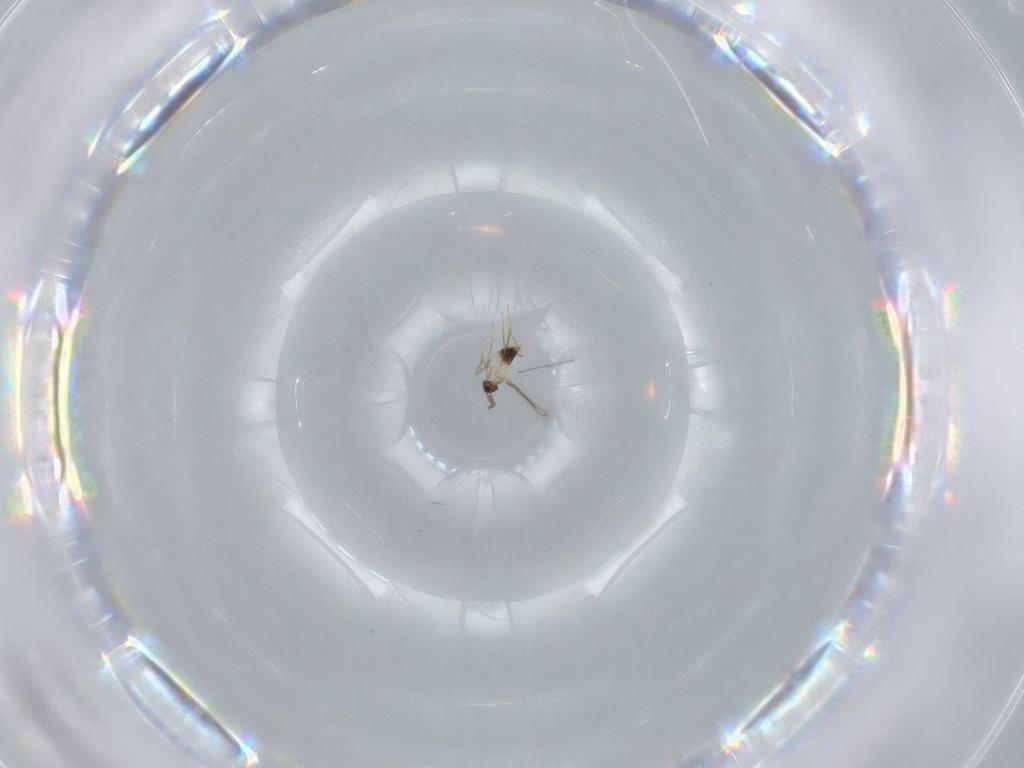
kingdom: Animalia
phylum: Arthropoda
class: Insecta
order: Hymenoptera
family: Mymaridae
